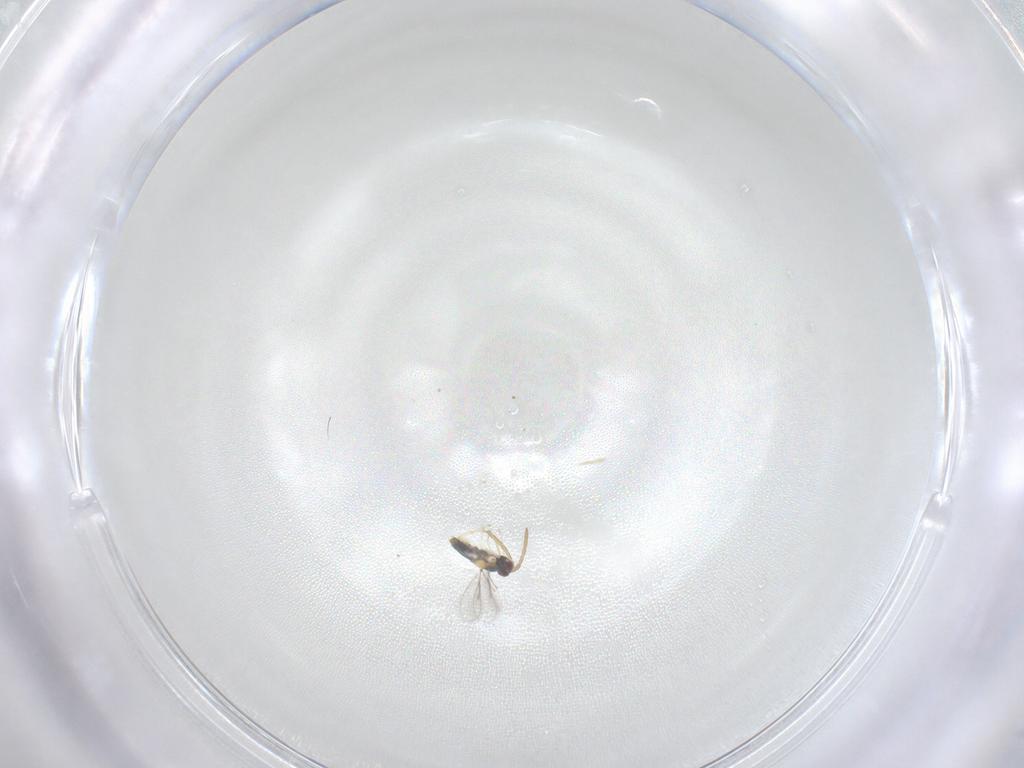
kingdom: Animalia
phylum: Arthropoda
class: Insecta
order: Hymenoptera
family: Aphelinidae
